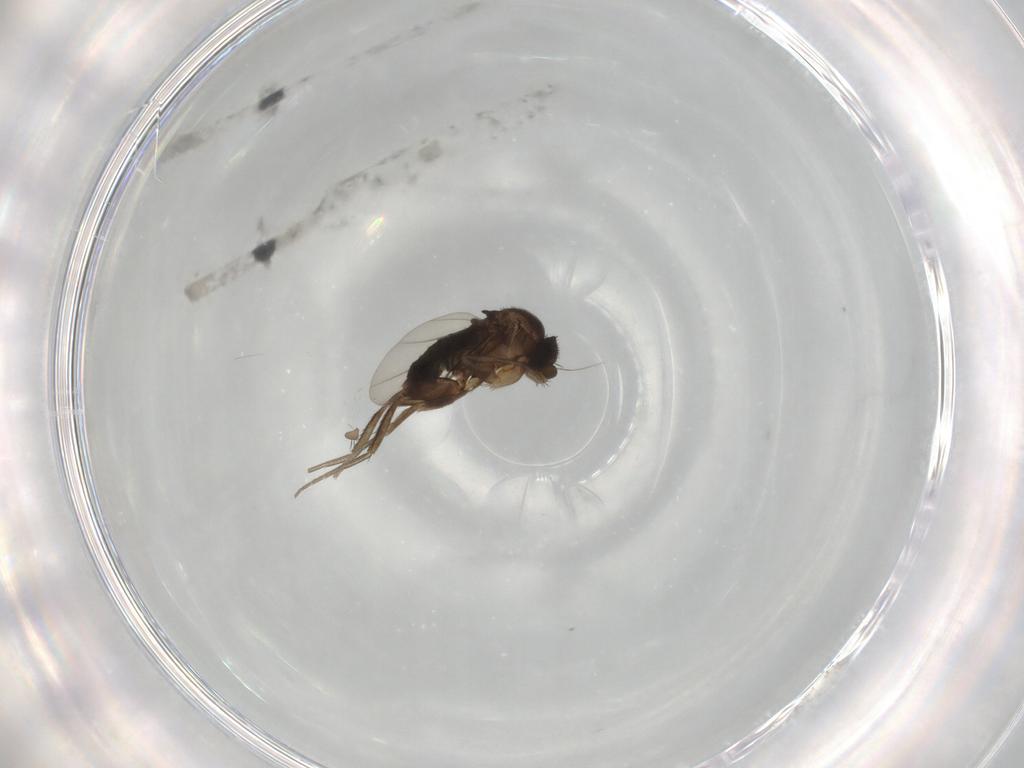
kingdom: Animalia
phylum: Arthropoda
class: Insecta
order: Diptera
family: Phoridae
